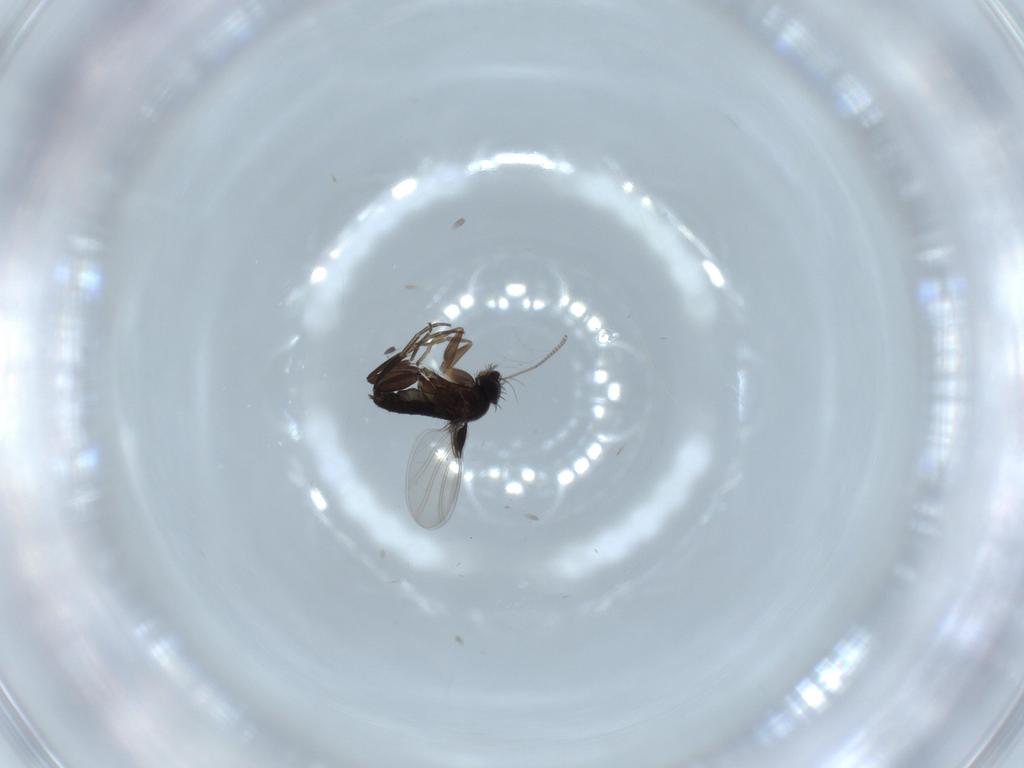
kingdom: Animalia
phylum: Arthropoda
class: Insecta
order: Diptera
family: Chironomidae
